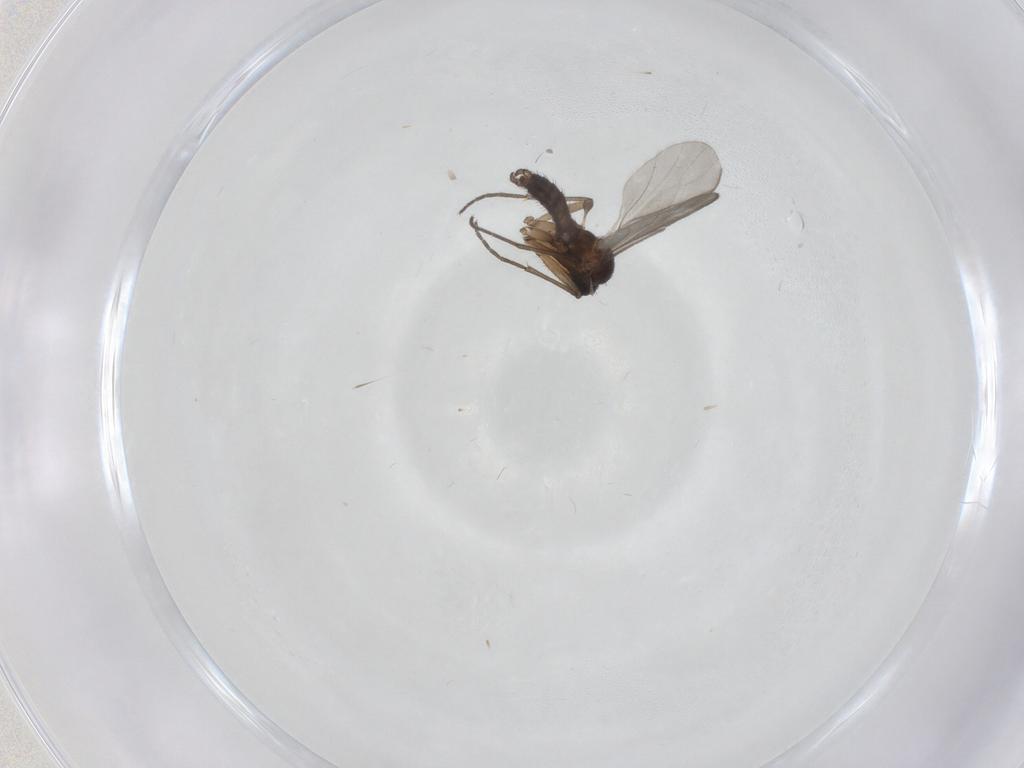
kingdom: Animalia
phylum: Arthropoda
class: Insecta
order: Diptera
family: Sciaridae
